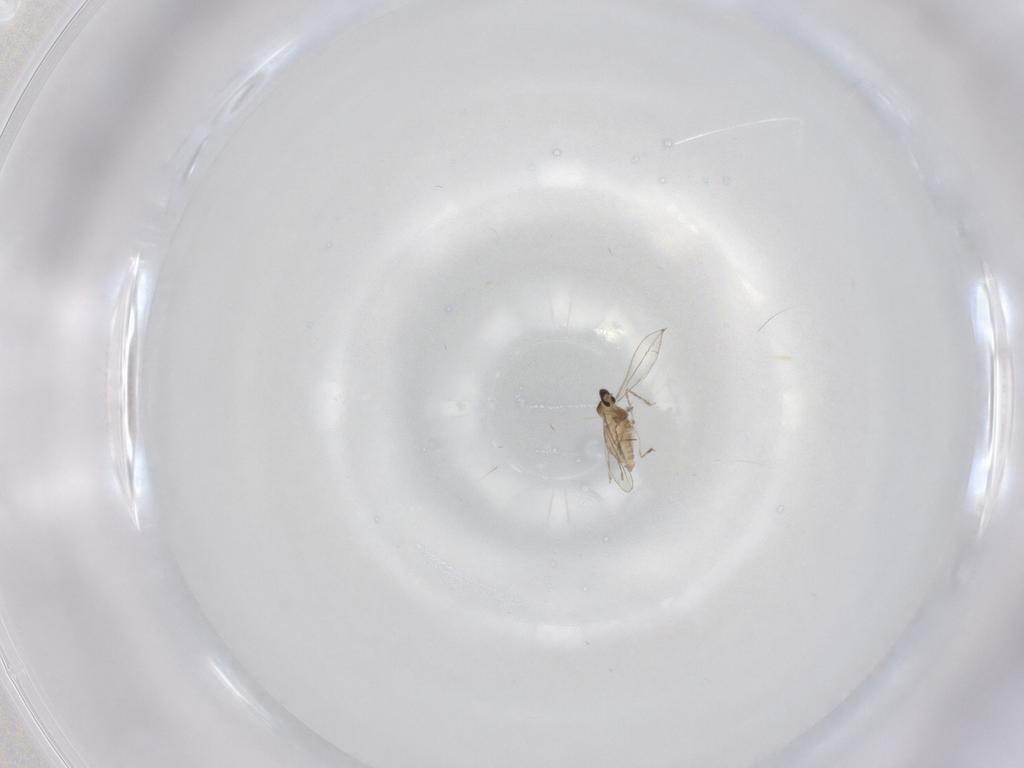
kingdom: Animalia
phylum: Arthropoda
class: Insecta
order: Diptera
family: Cecidomyiidae
